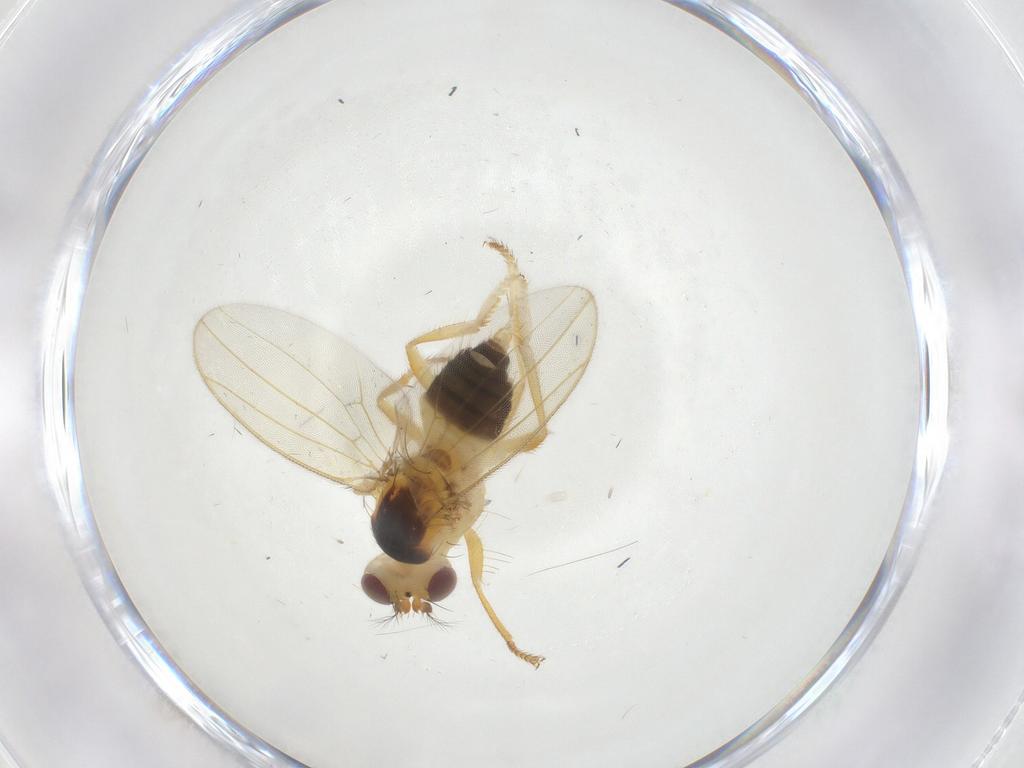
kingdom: Animalia
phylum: Arthropoda
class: Insecta
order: Diptera
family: Periscelididae
